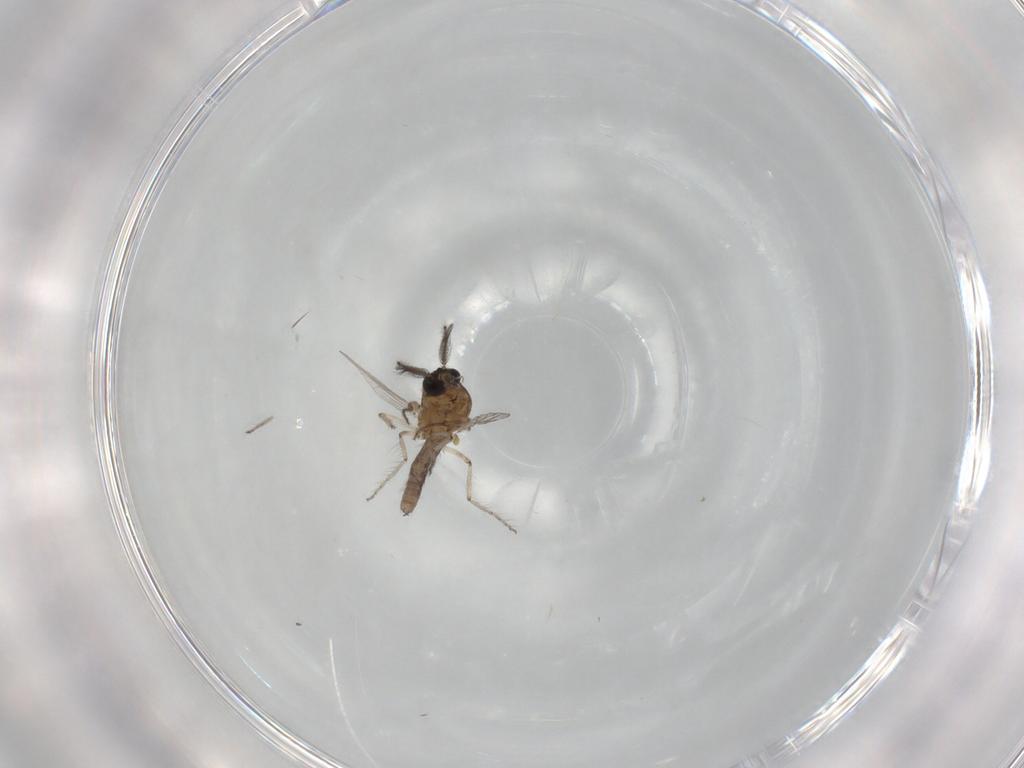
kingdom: Animalia
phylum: Arthropoda
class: Insecta
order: Diptera
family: Ceratopogonidae
